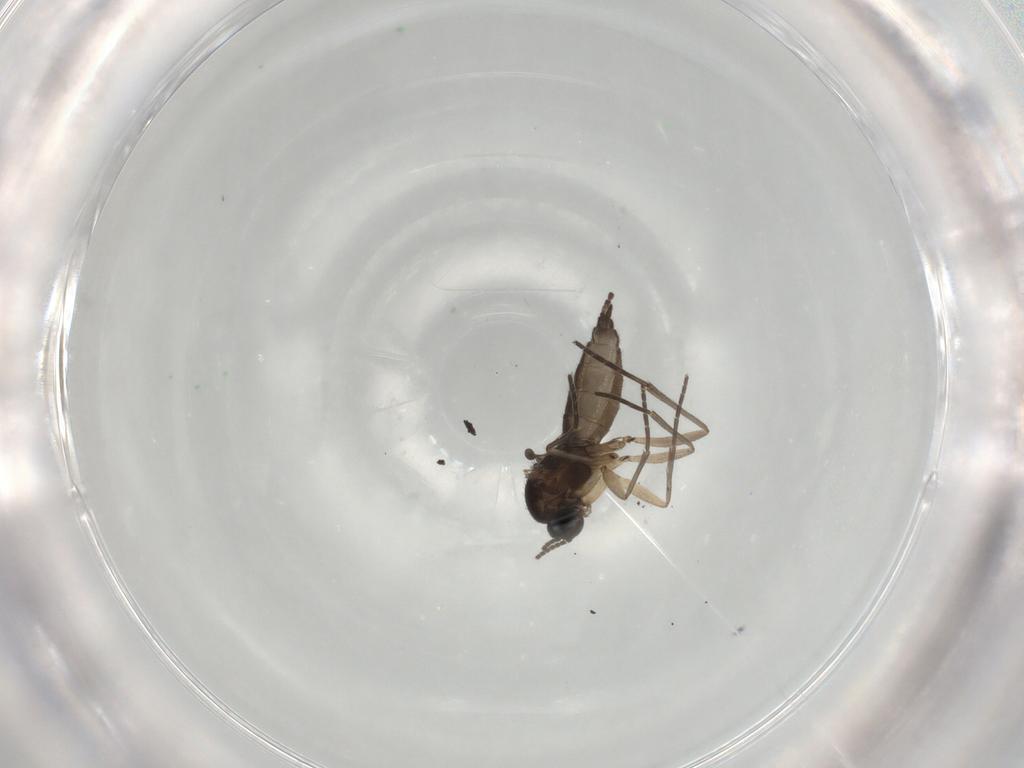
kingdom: Animalia
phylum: Arthropoda
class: Insecta
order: Diptera
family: Sciaridae
